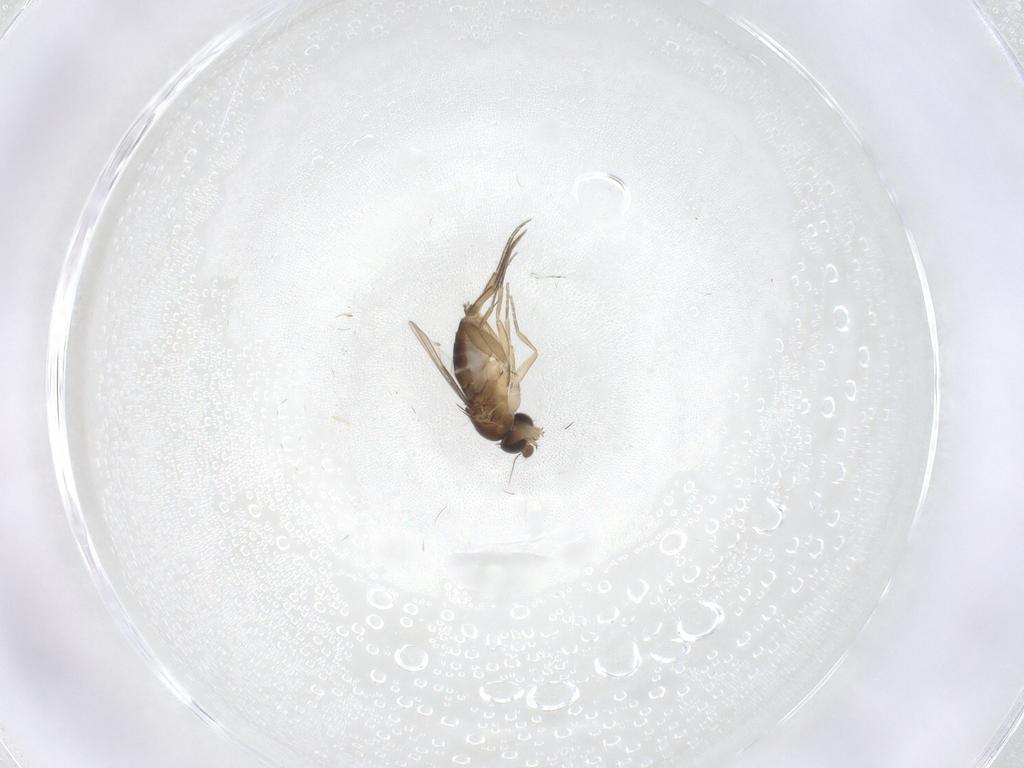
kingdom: Animalia
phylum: Arthropoda
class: Insecta
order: Diptera
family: Phoridae
